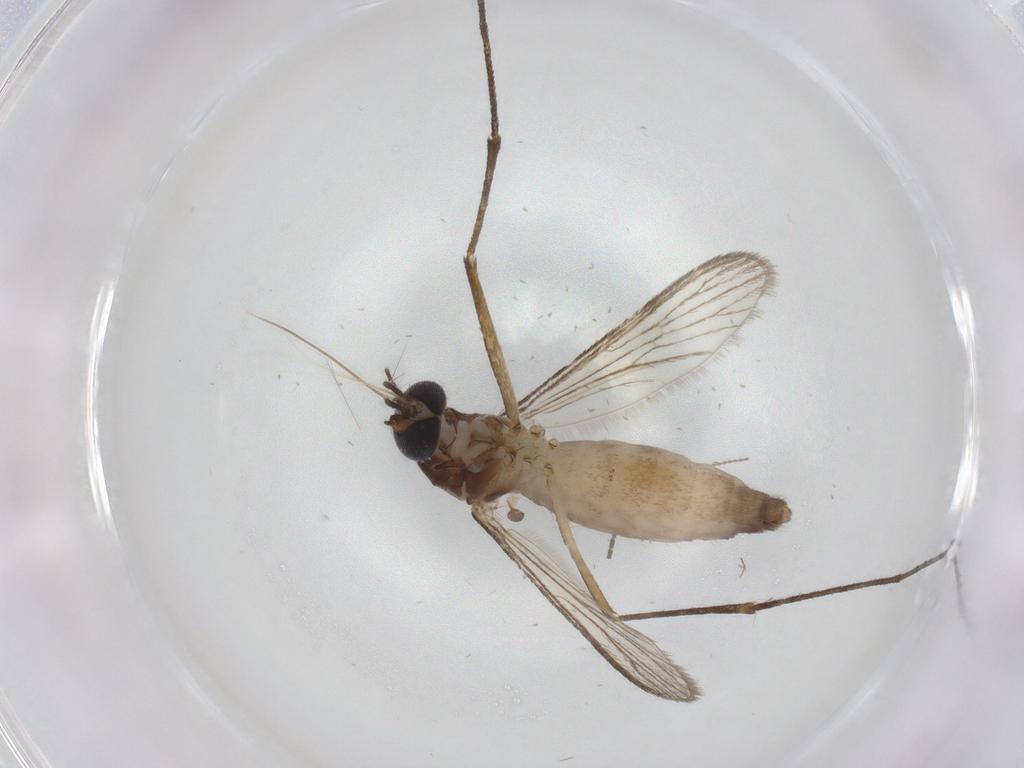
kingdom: Animalia
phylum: Arthropoda
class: Insecta
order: Diptera
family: Culicidae
